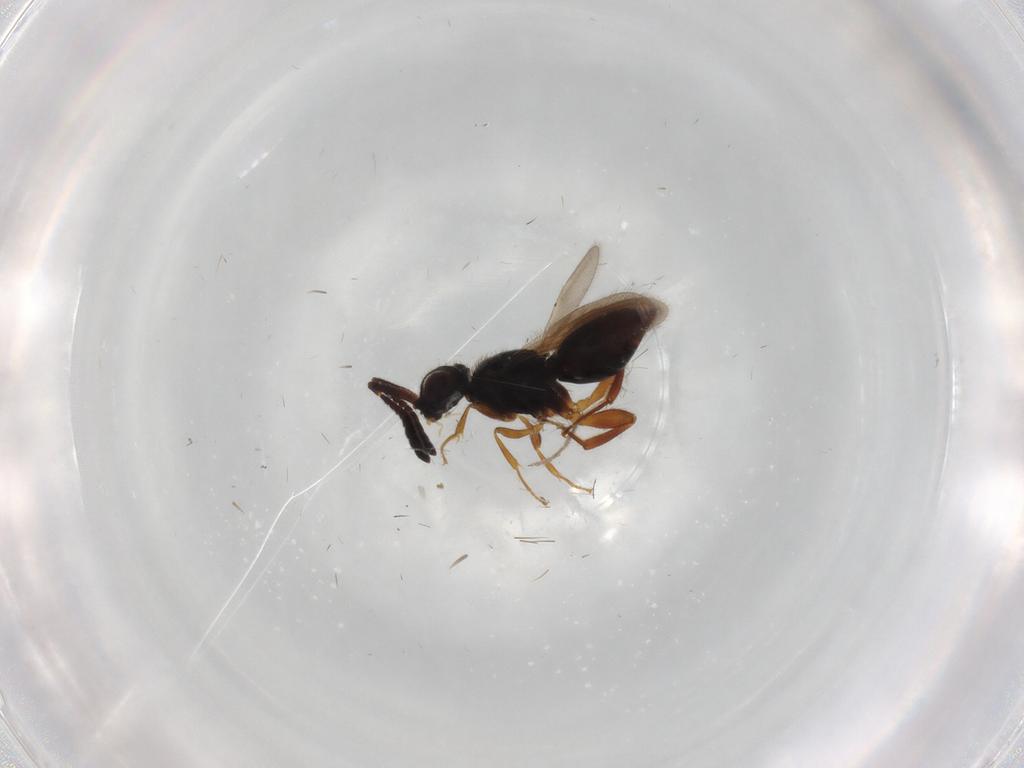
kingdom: Animalia
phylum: Arthropoda
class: Insecta
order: Diptera
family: Chironomidae
